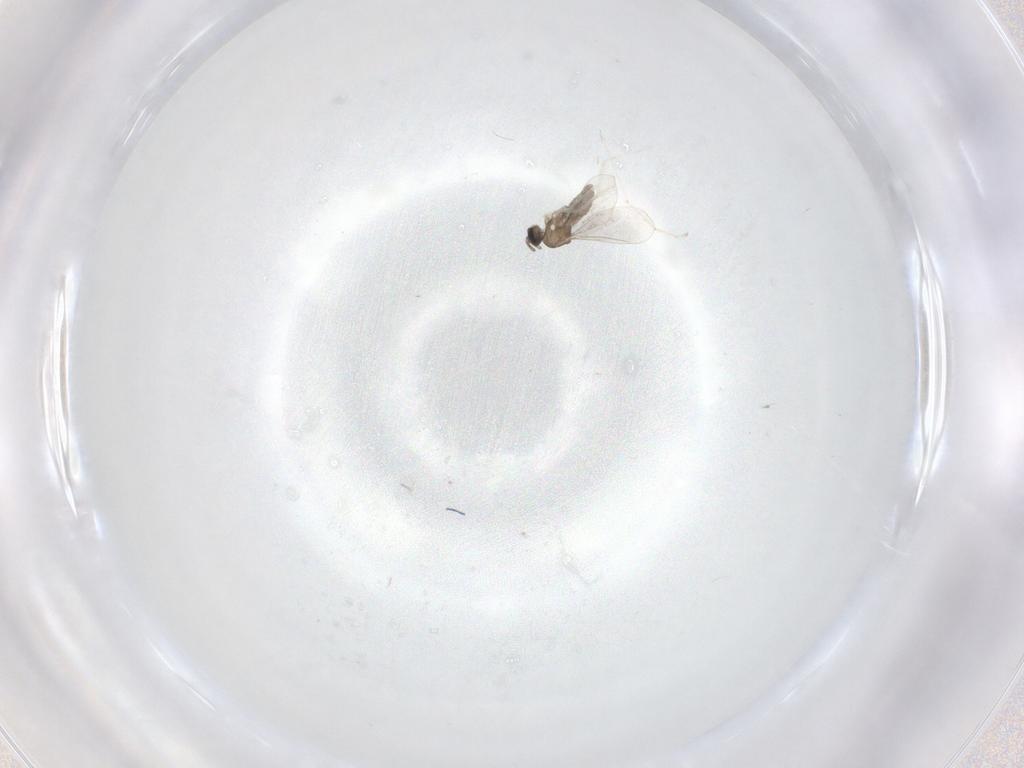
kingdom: Animalia
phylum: Arthropoda
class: Insecta
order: Diptera
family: Cecidomyiidae
